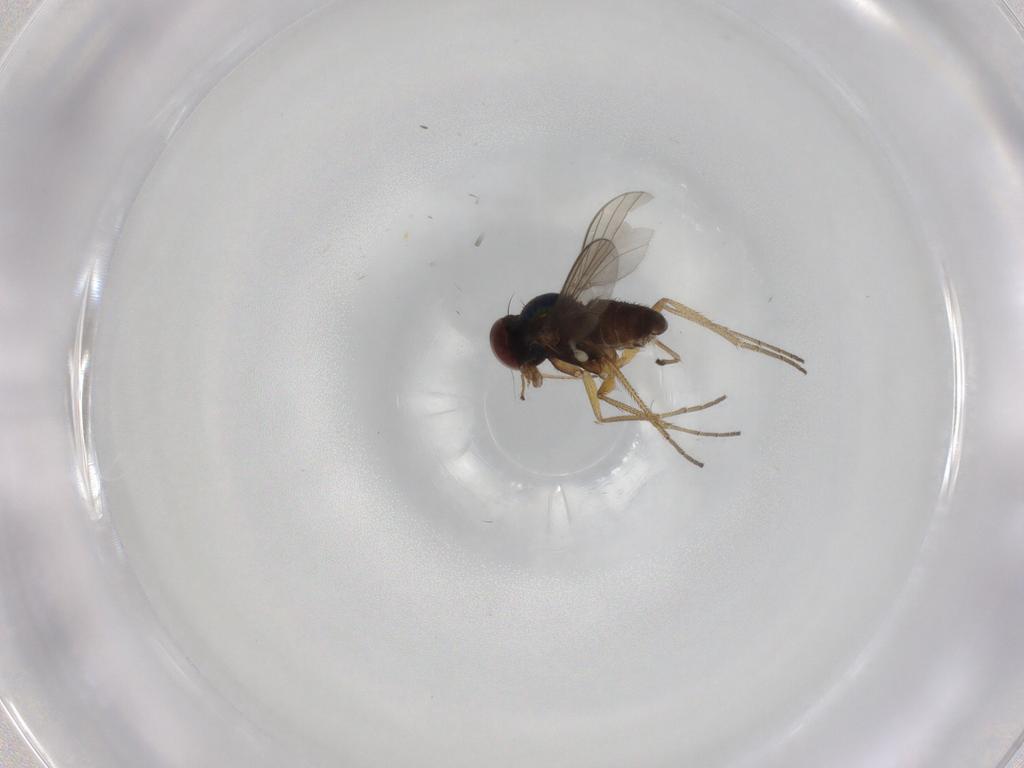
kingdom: Animalia
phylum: Arthropoda
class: Insecta
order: Diptera
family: Dolichopodidae
